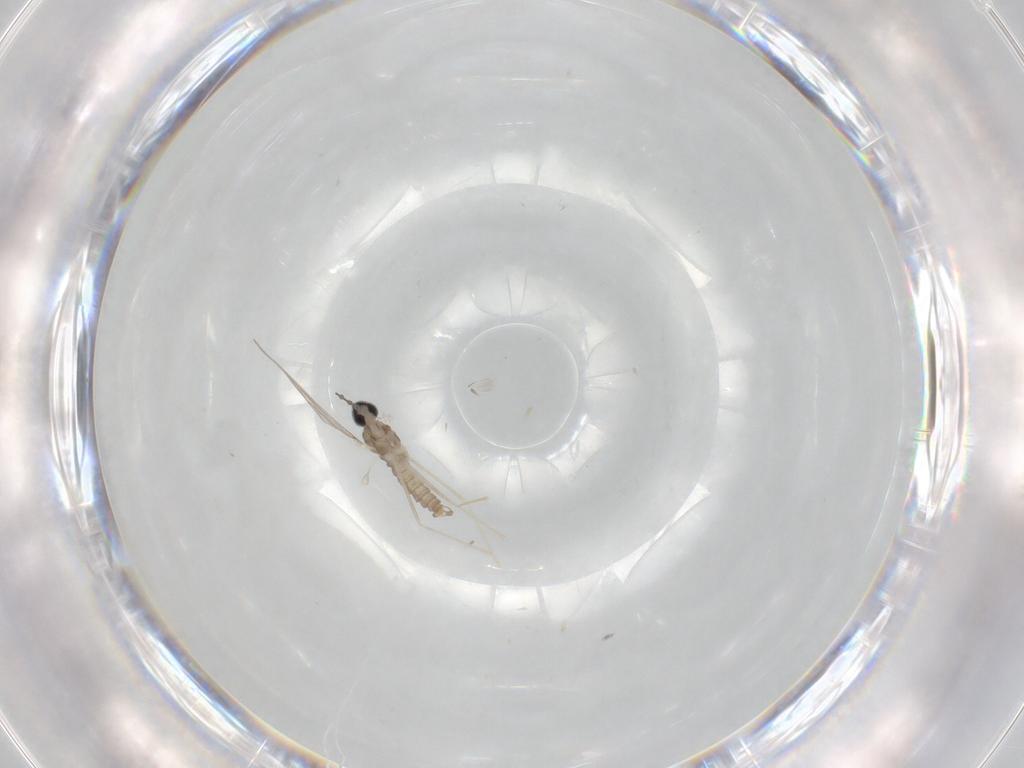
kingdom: Animalia
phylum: Arthropoda
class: Insecta
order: Diptera
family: Cecidomyiidae
